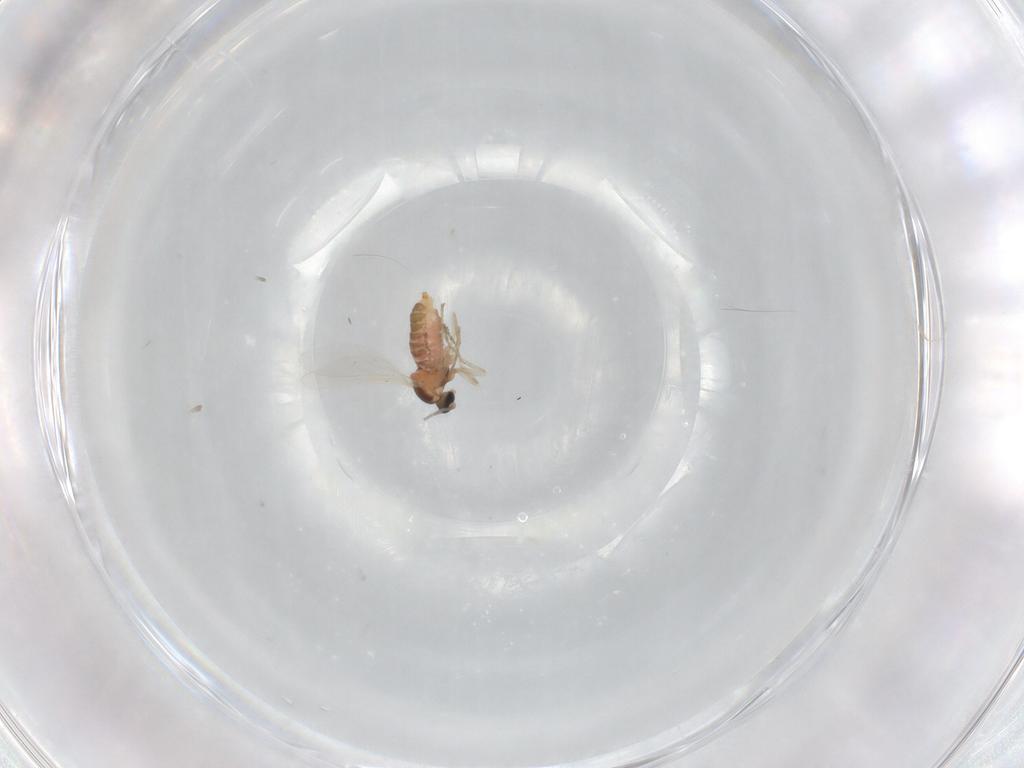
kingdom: Animalia
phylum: Arthropoda
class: Insecta
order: Diptera
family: Cecidomyiidae
